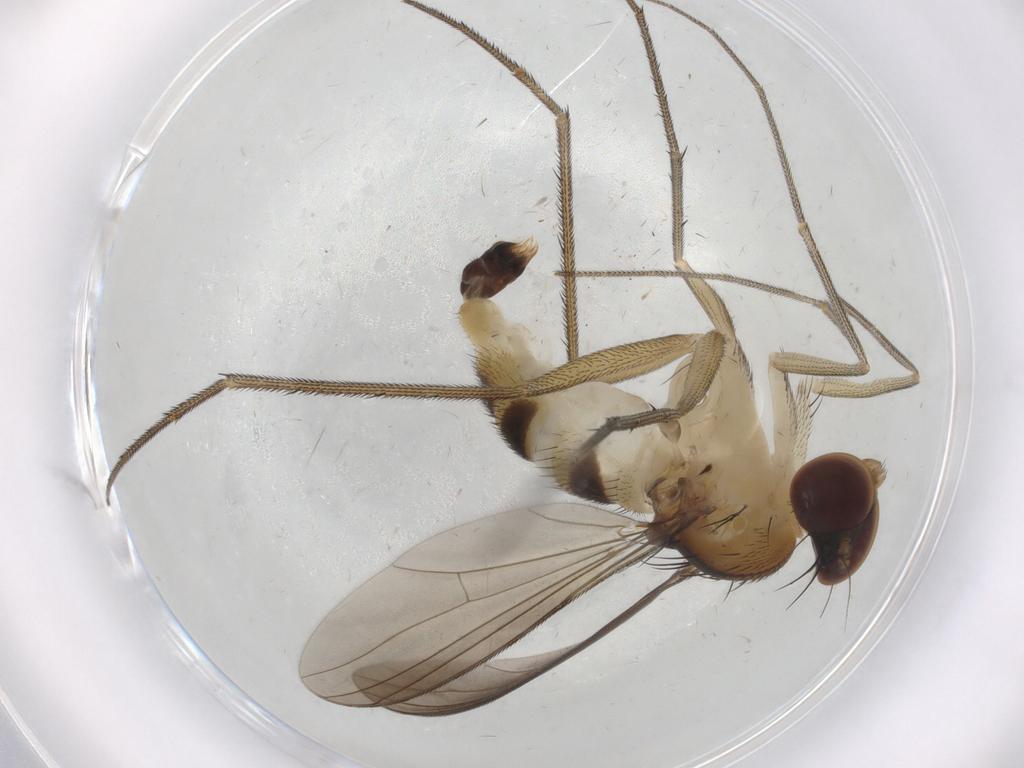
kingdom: Animalia
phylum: Arthropoda
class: Insecta
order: Diptera
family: Dolichopodidae
